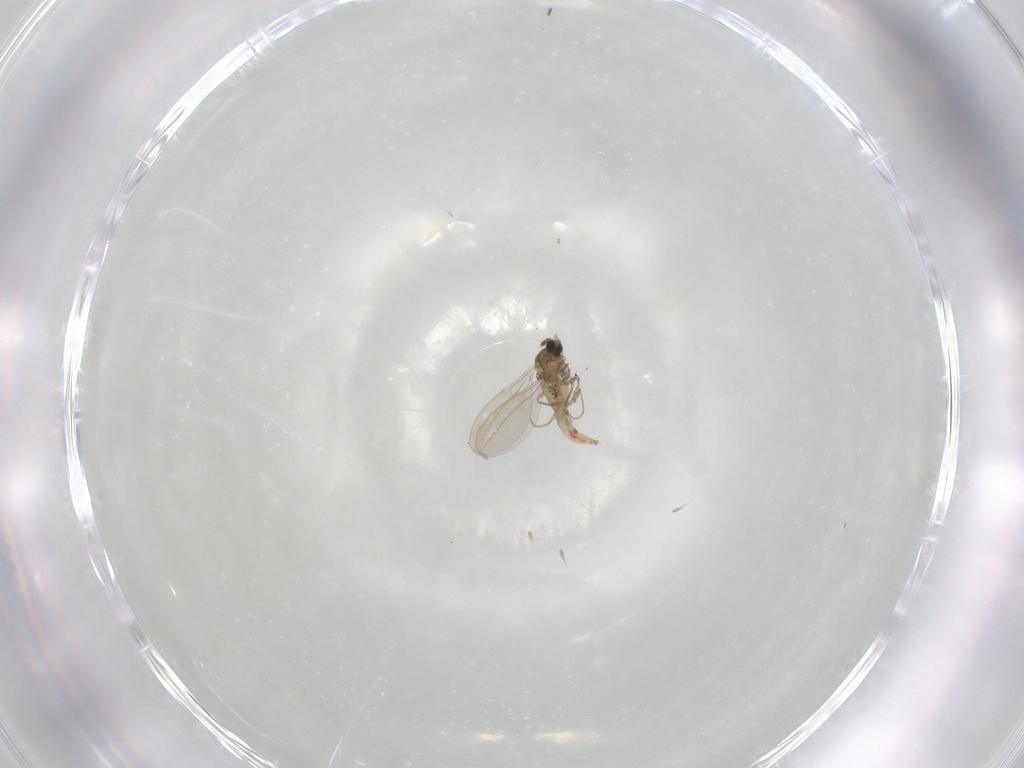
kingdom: Animalia
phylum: Arthropoda
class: Insecta
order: Diptera
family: Cecidomyiidae
